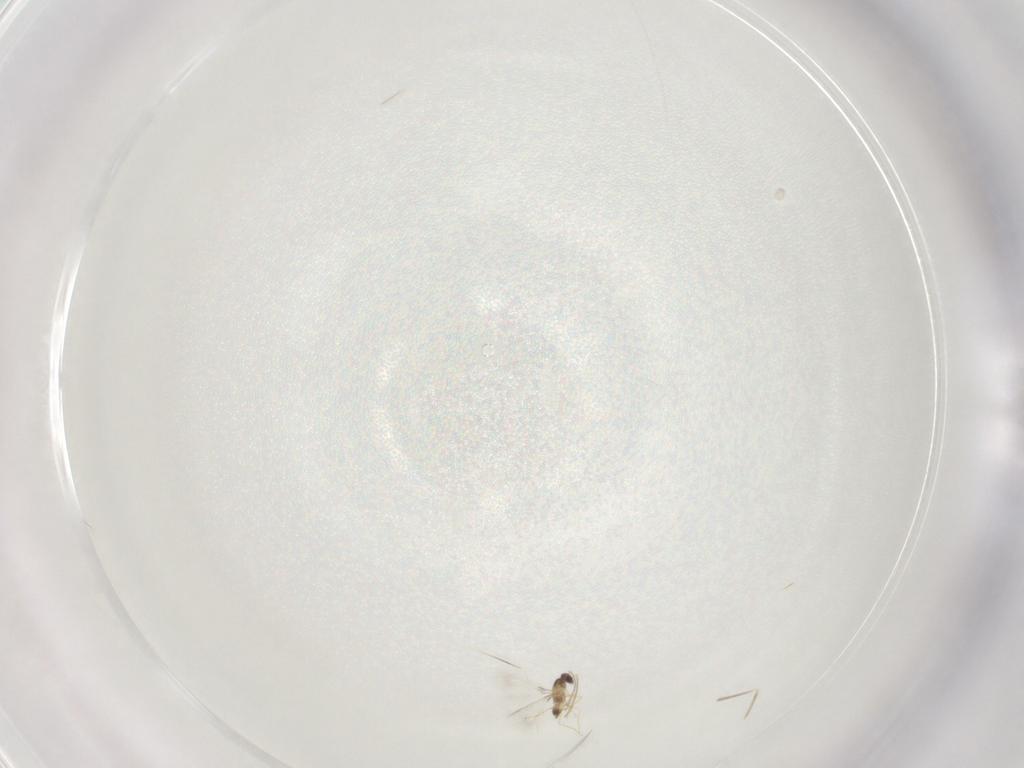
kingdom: Animalia
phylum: Arthropoda
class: Insecta
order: Hymenoptera
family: Mymaridae
